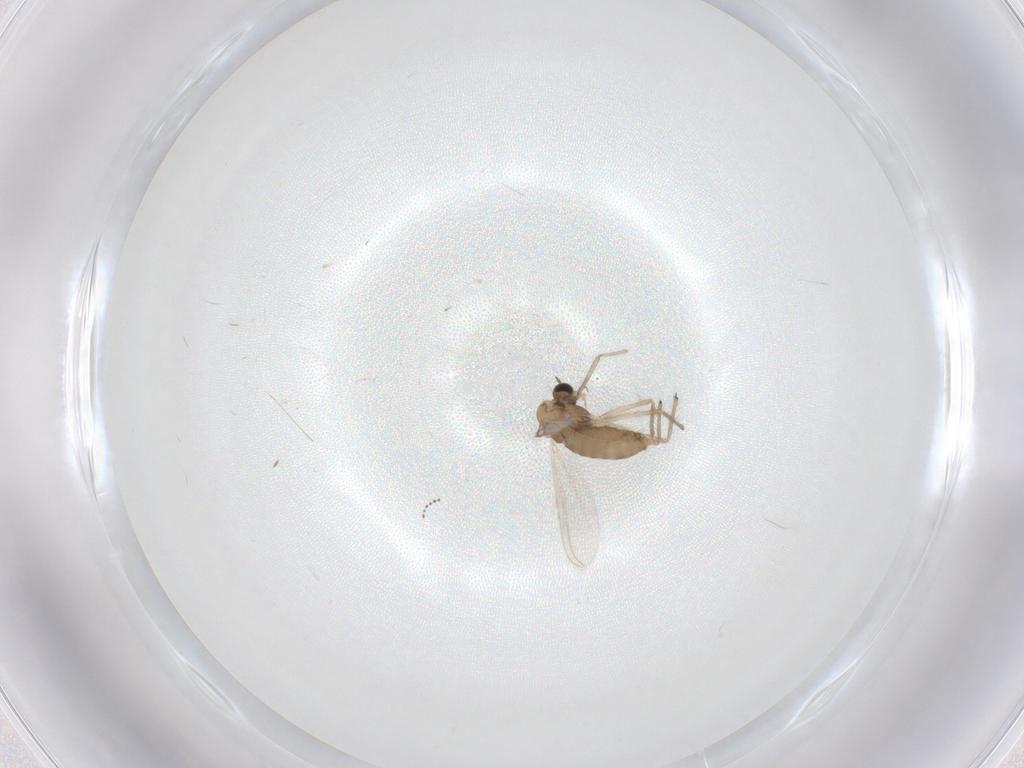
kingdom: Animalia
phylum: Arthropoda
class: Insecta
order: Diptera
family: Chironomidae
